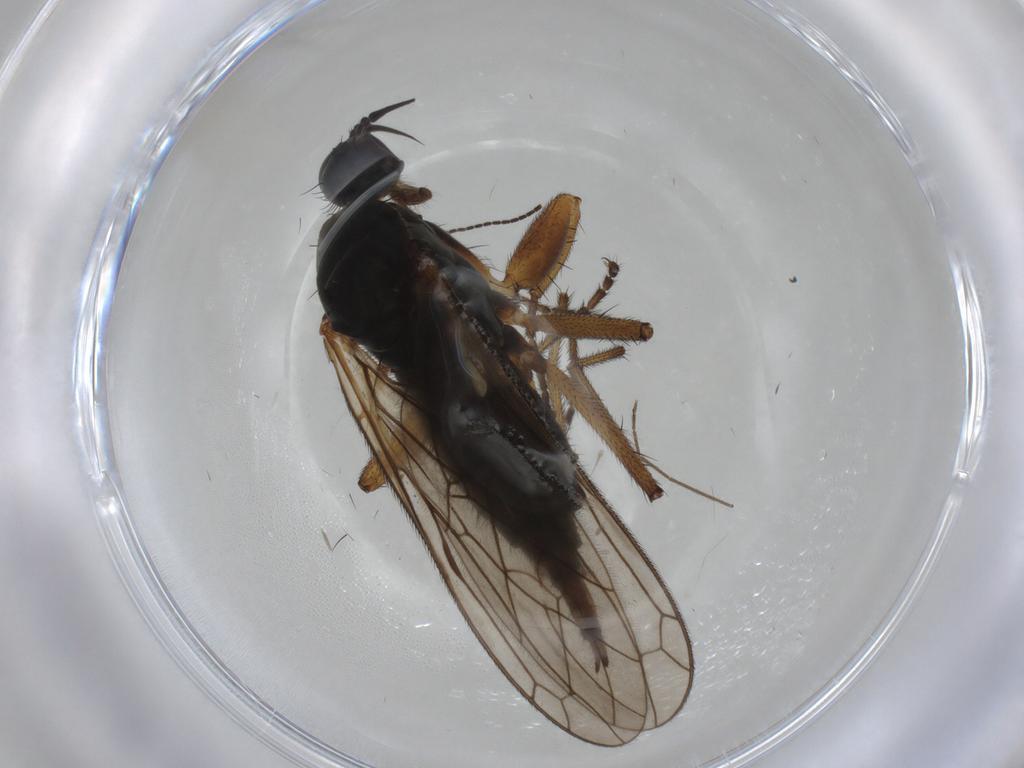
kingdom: Animalia
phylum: Arthropoda
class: Insecta
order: Diptera
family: Empididae
